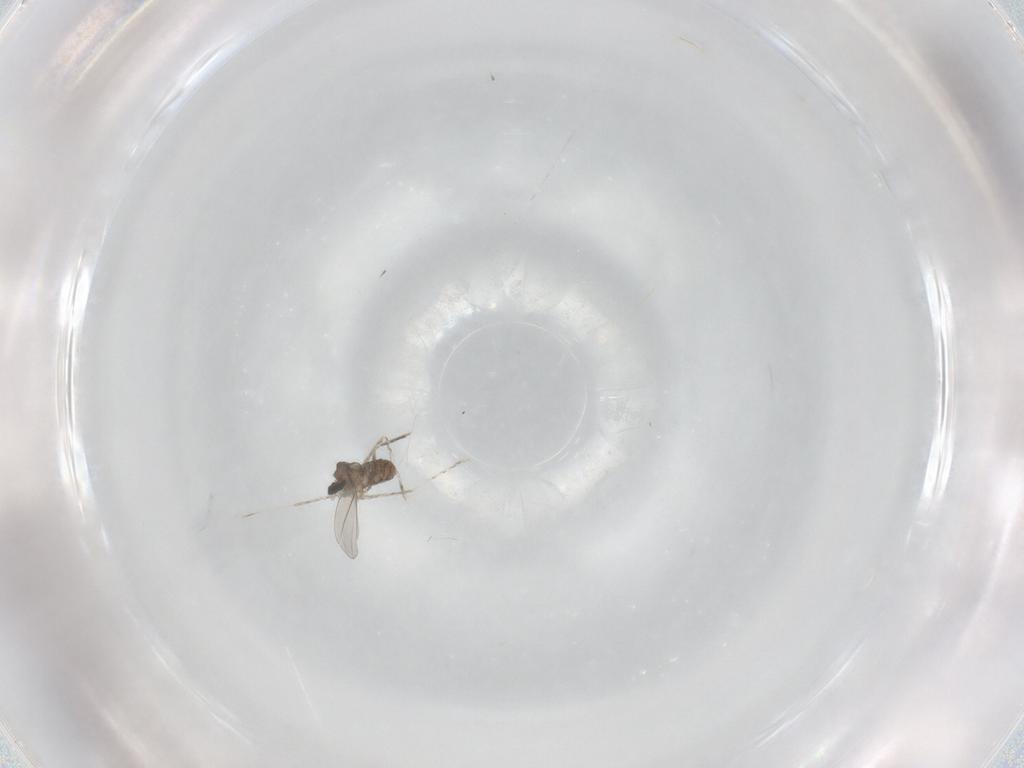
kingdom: Animalia
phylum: Arthropoda
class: Insecta
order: Diptera
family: Cecidomyiidae
